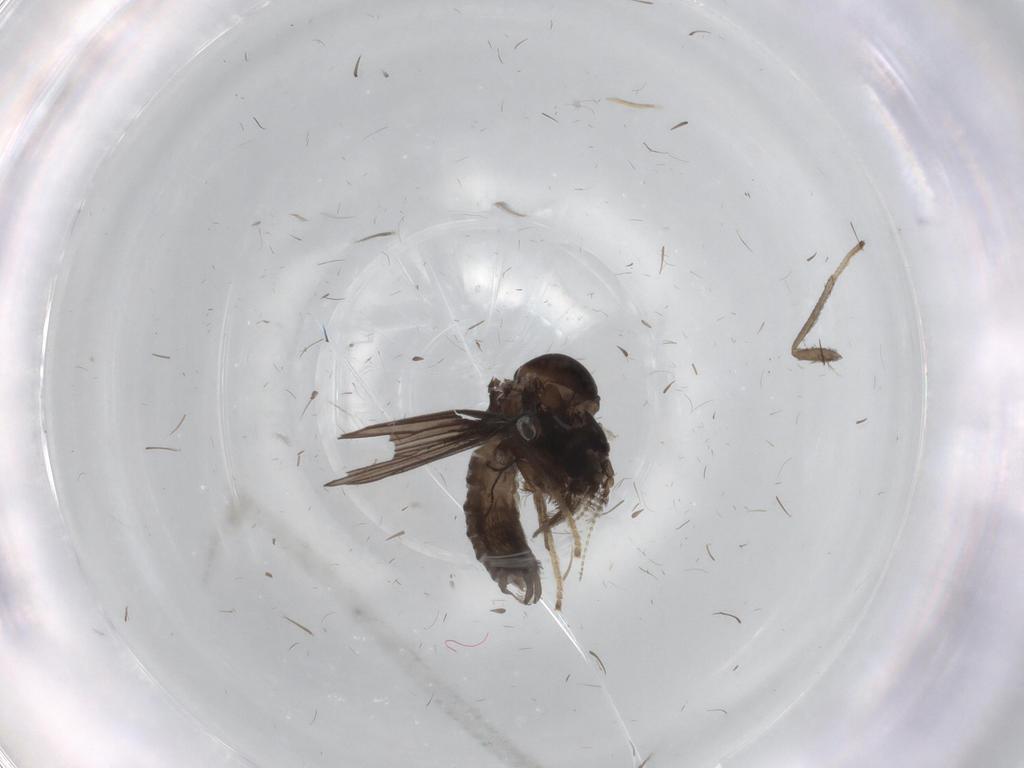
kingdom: Animalia
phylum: Arthropoda
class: Insecta
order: Diptera
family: Psychodidae
